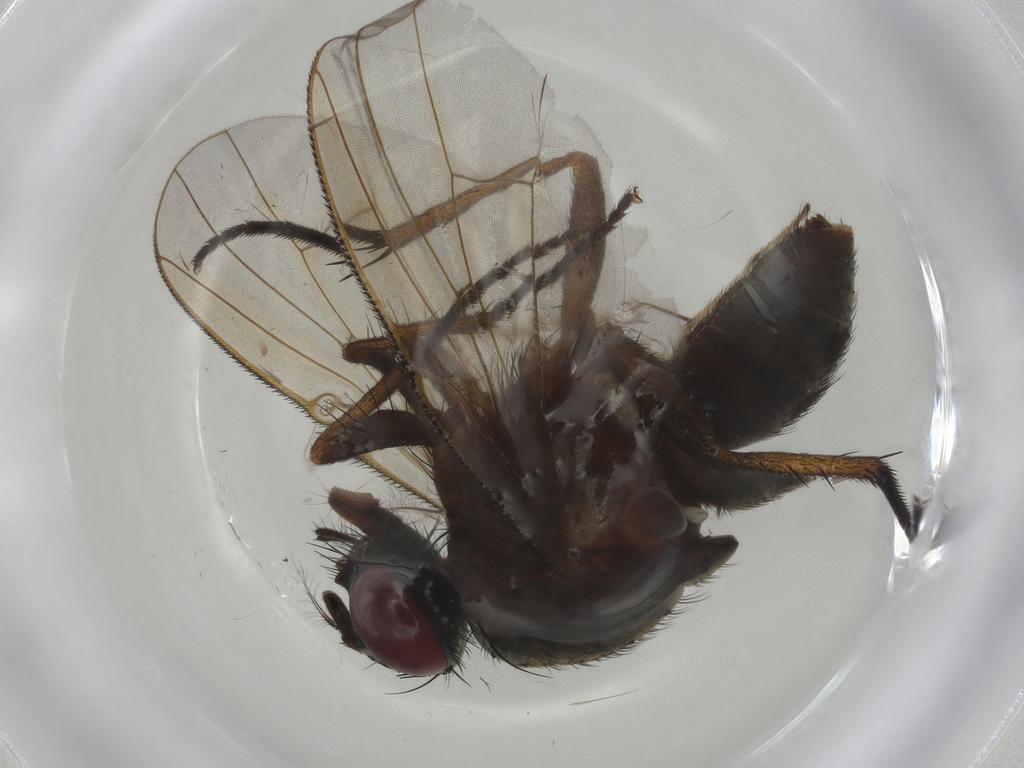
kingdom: Animalia
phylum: Arthropoda
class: Insecta
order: Diptera
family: Muscidae
